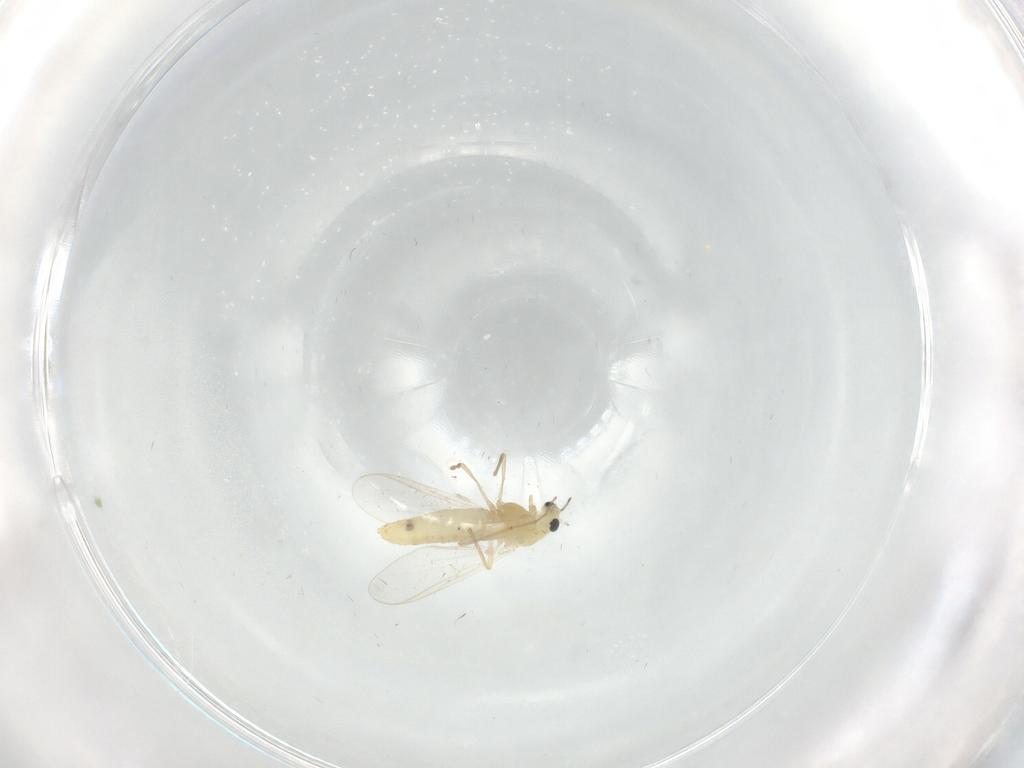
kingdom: Animalia
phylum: Arthropoda
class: Insecta
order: Diptera
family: Chironomidae
